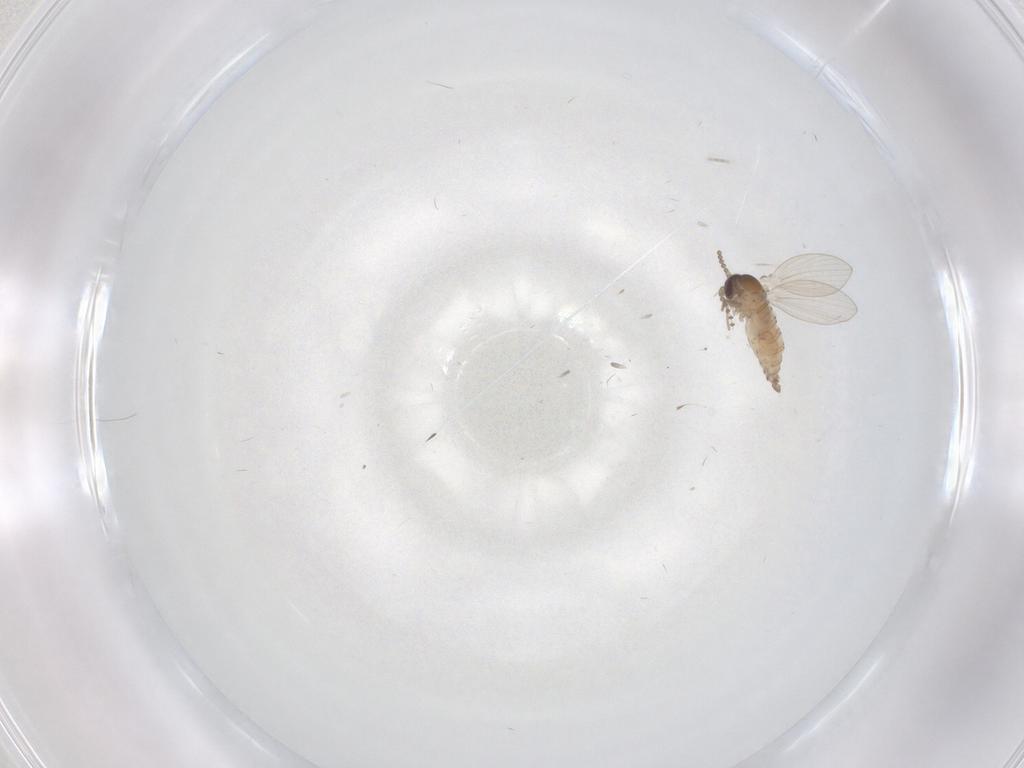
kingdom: Animalia
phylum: Arthropoda
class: Insecta
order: Diptera
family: Psychodidae
